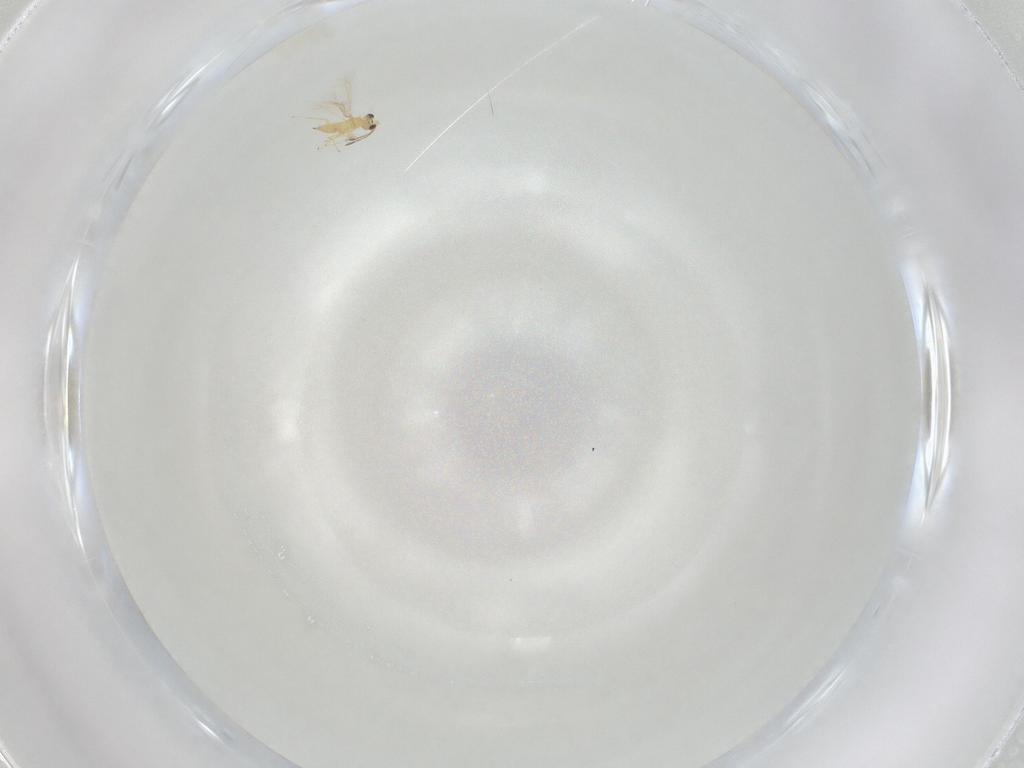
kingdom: Animalia
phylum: Arthropoda
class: Insecta
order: Hymenoptera
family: Mymaridae
